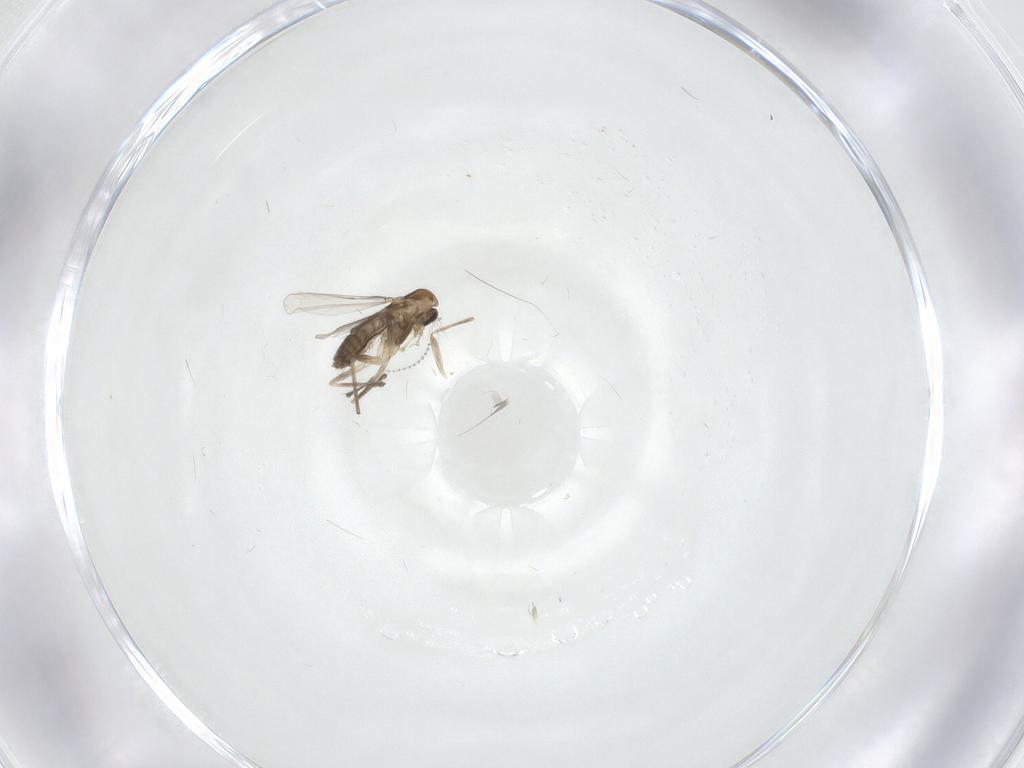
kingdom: Animalia
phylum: Arthropoda
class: Insecta
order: Diptera
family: Chironomidae
